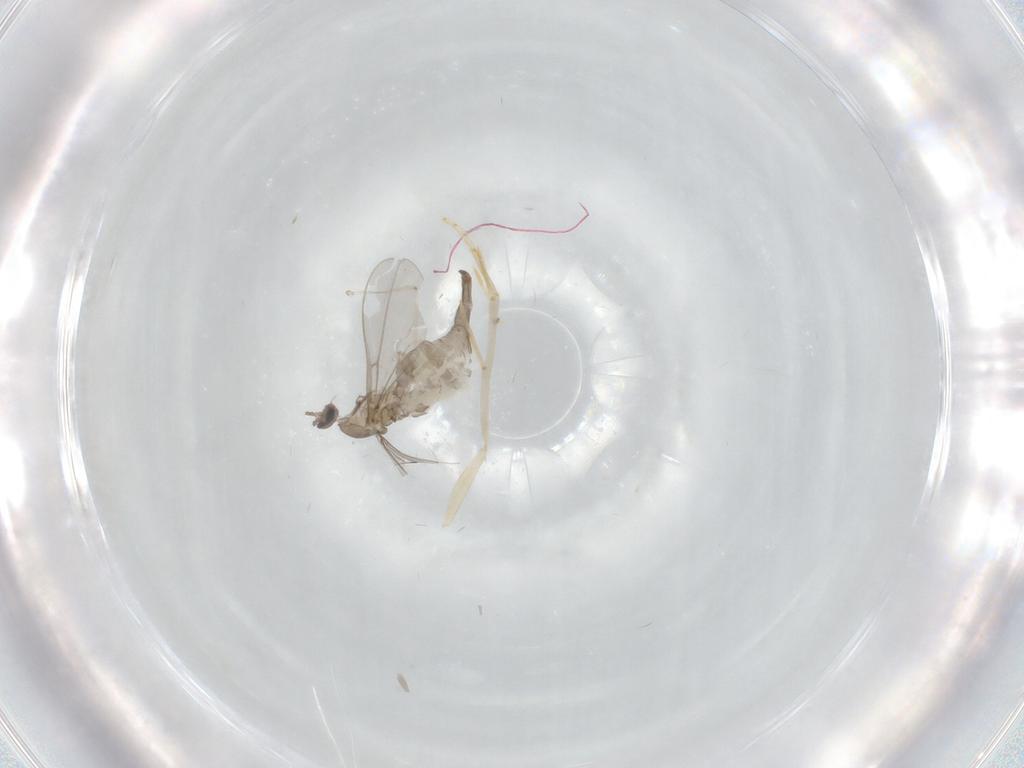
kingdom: Animalia
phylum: Arthropoda
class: Insecta
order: Diptera
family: Cecidomyiidae
